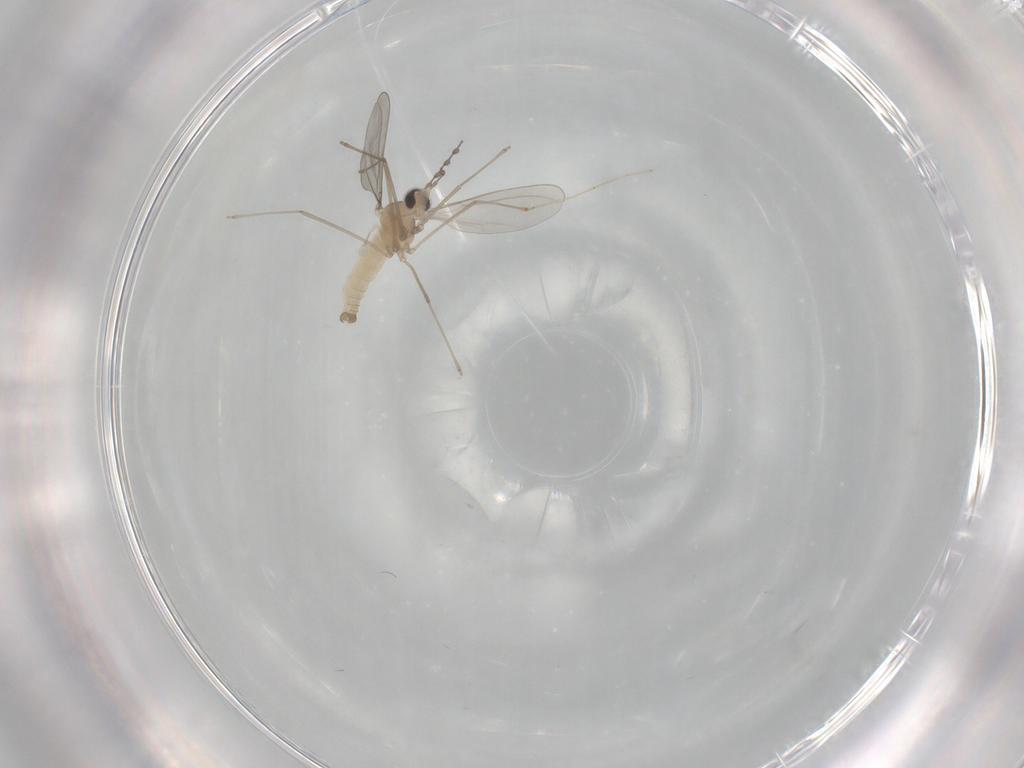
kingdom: Animalia
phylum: Arthropoda
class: Insecta
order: Diptera
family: Cecidomyiidae
